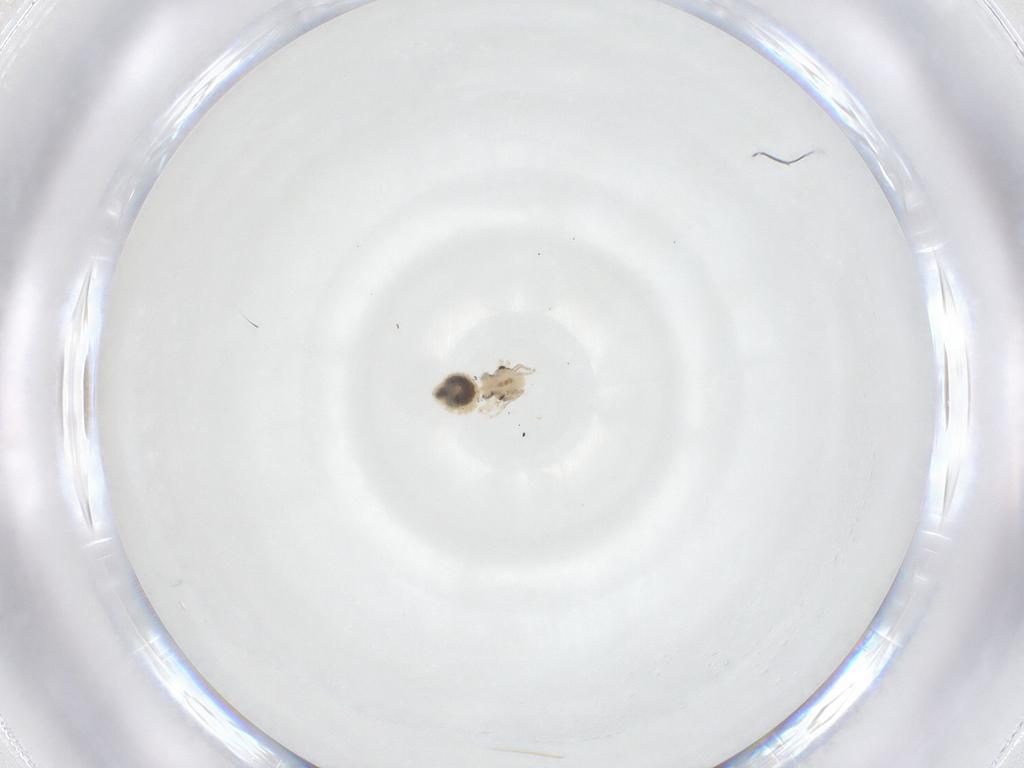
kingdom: Animalia
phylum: Arthropoda
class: Insecta
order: Psocodea
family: Caeciliusidae
